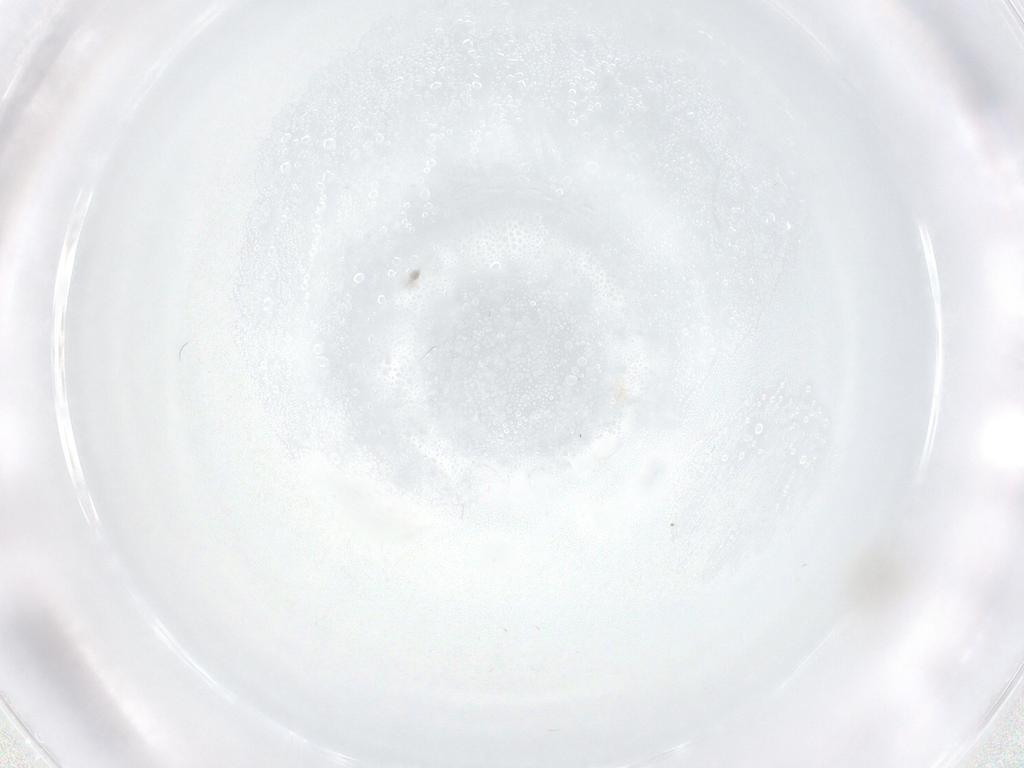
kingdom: Animalia
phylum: Arthropoda
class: Insecta
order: Diptera
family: Cecidomyiidae
